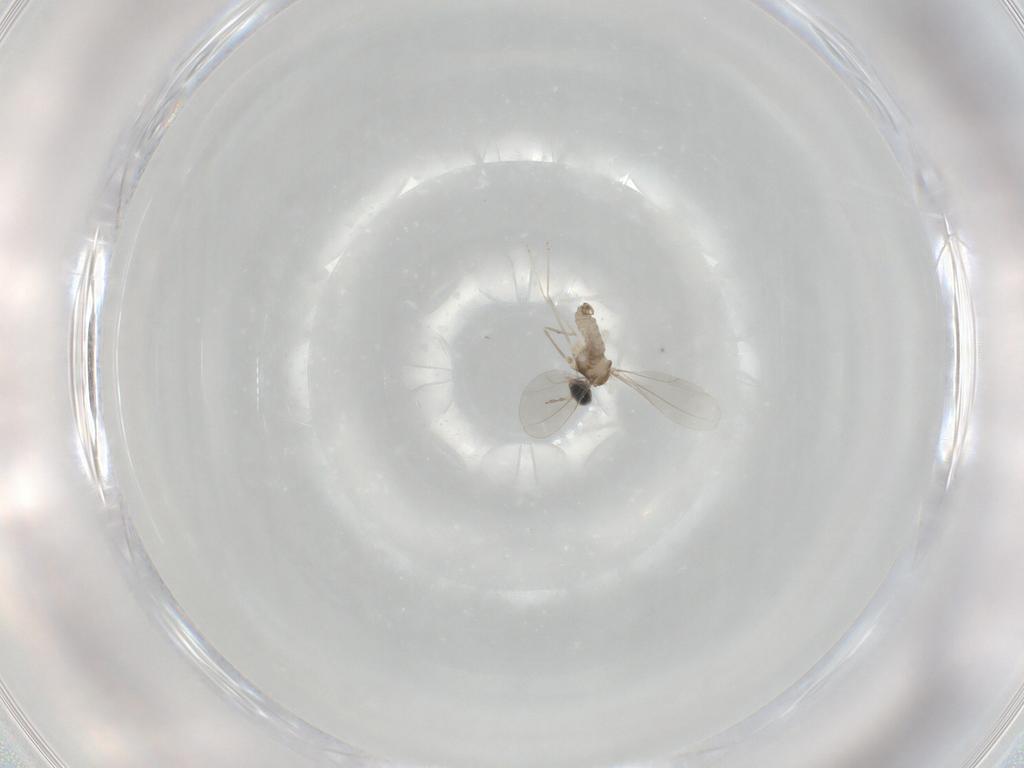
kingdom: Animalia
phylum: Arthropoda
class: Insecta
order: Diptera
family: Cecidomyiidae
